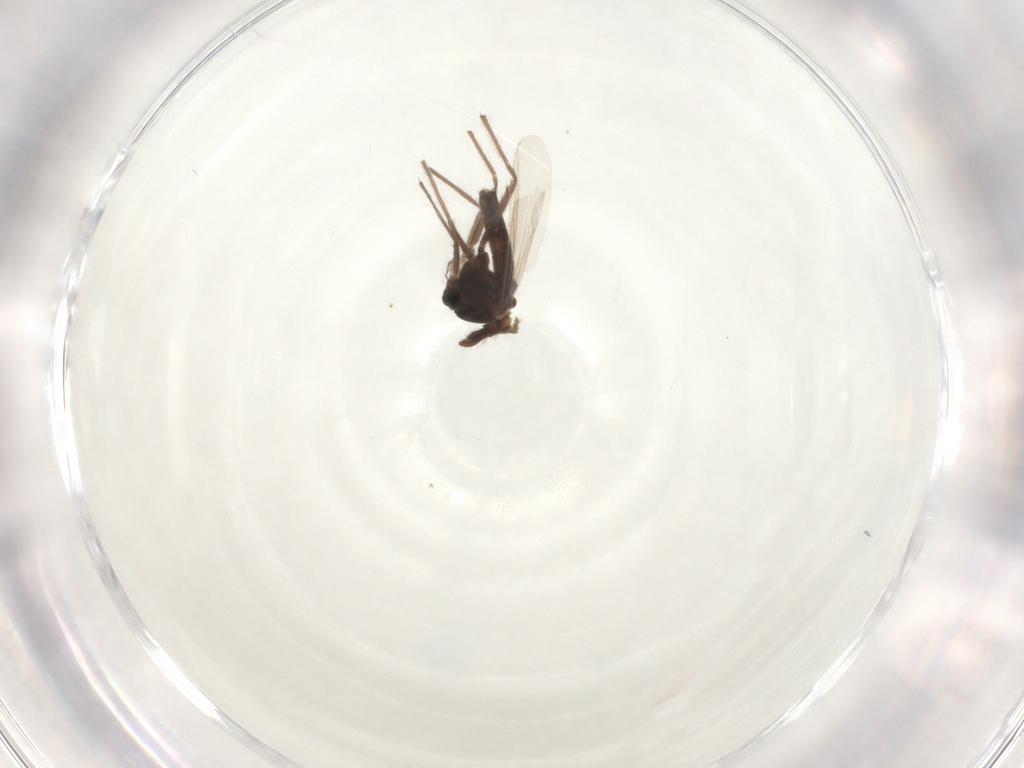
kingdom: Animalia
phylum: Arthropoda
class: Insecta
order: Diptera
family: Chironomidae
